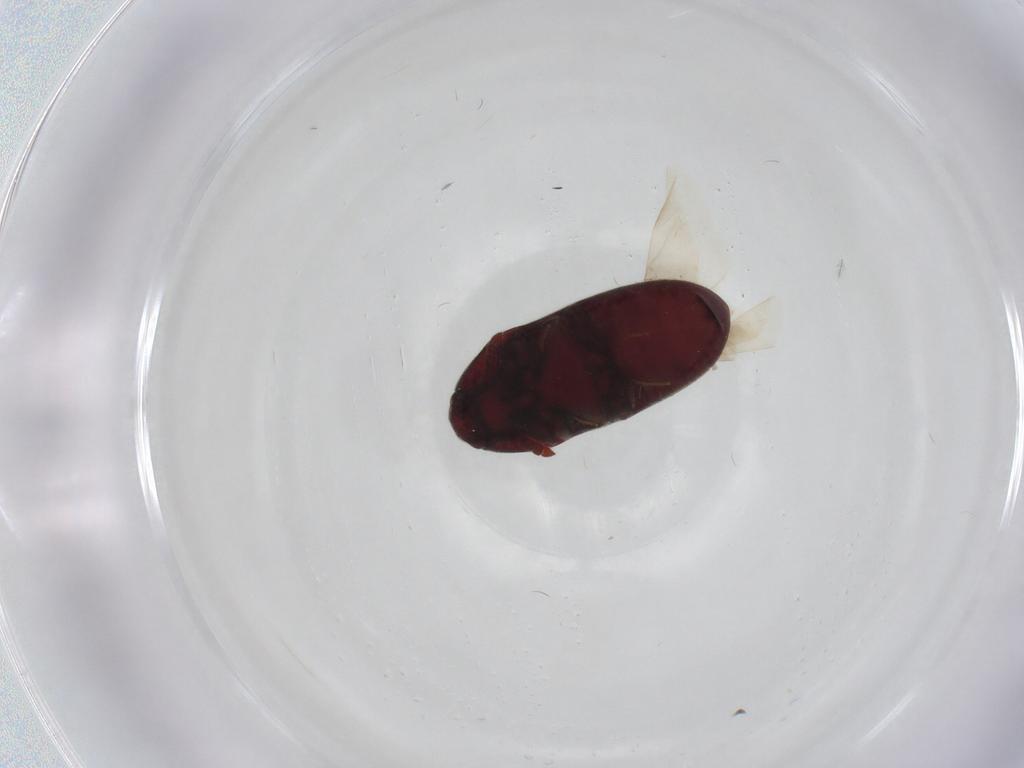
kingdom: Animalia
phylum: Arthropoda
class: Insecta
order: Coleoptera
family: Throscidae
